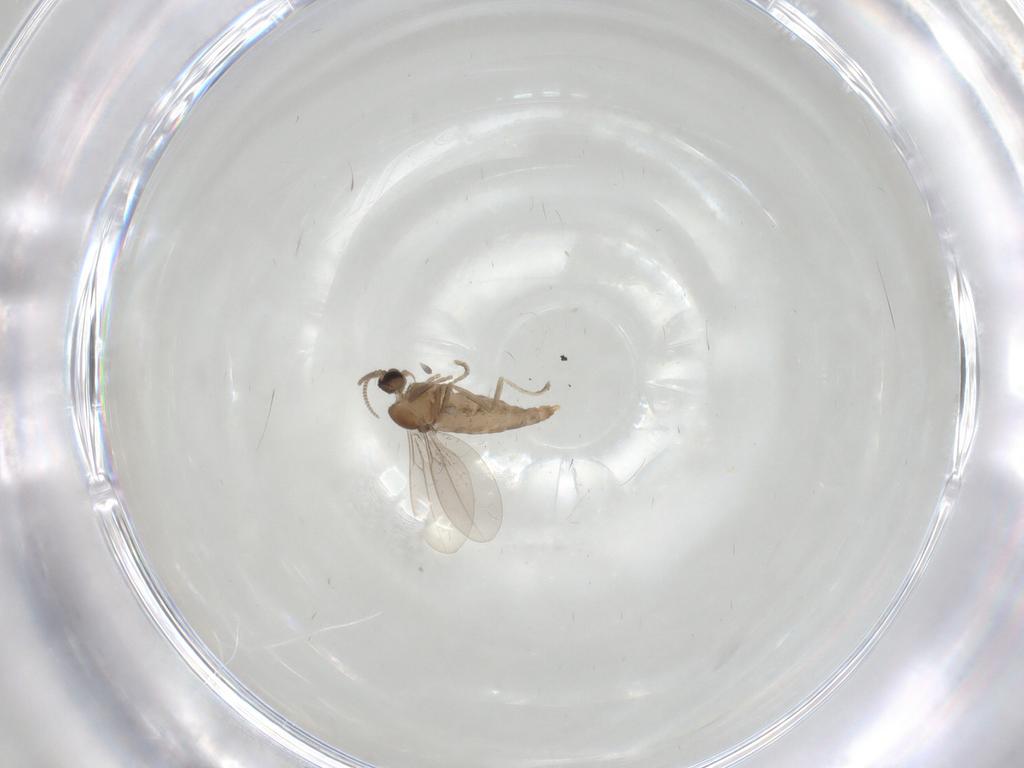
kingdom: Animalia
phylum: Arthropoda
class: Insecta
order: Diptera
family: Cecidomyiidae
